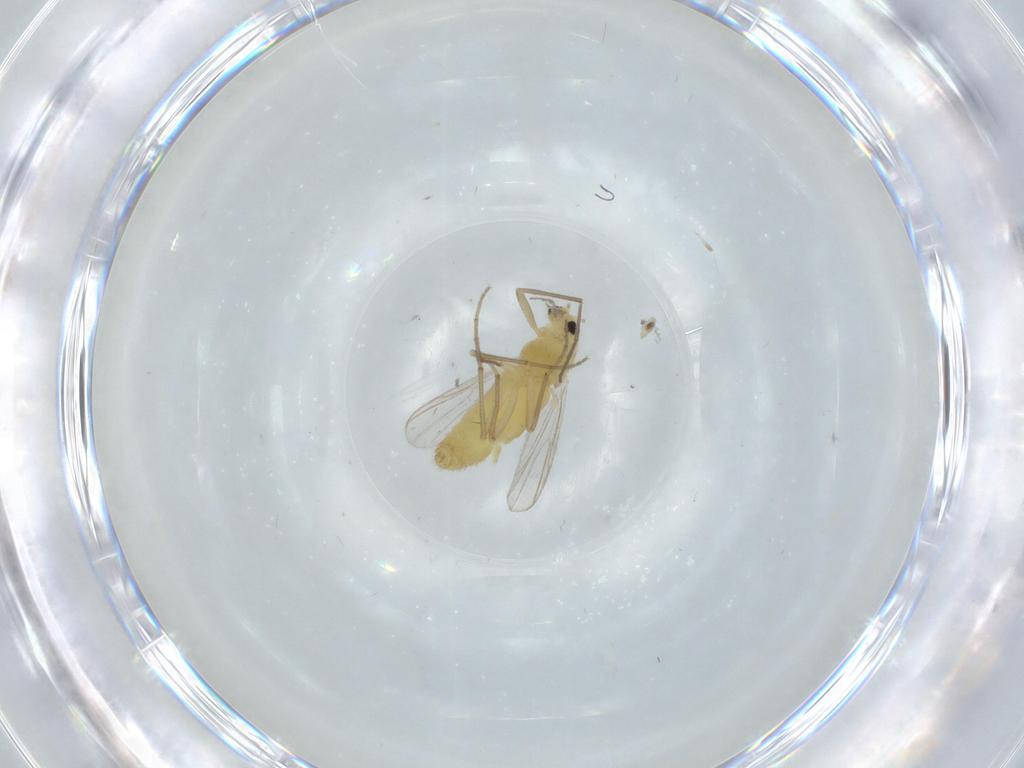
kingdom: Animalia
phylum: Arthropoda
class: Insecta
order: Diptera
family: Chironomidae
